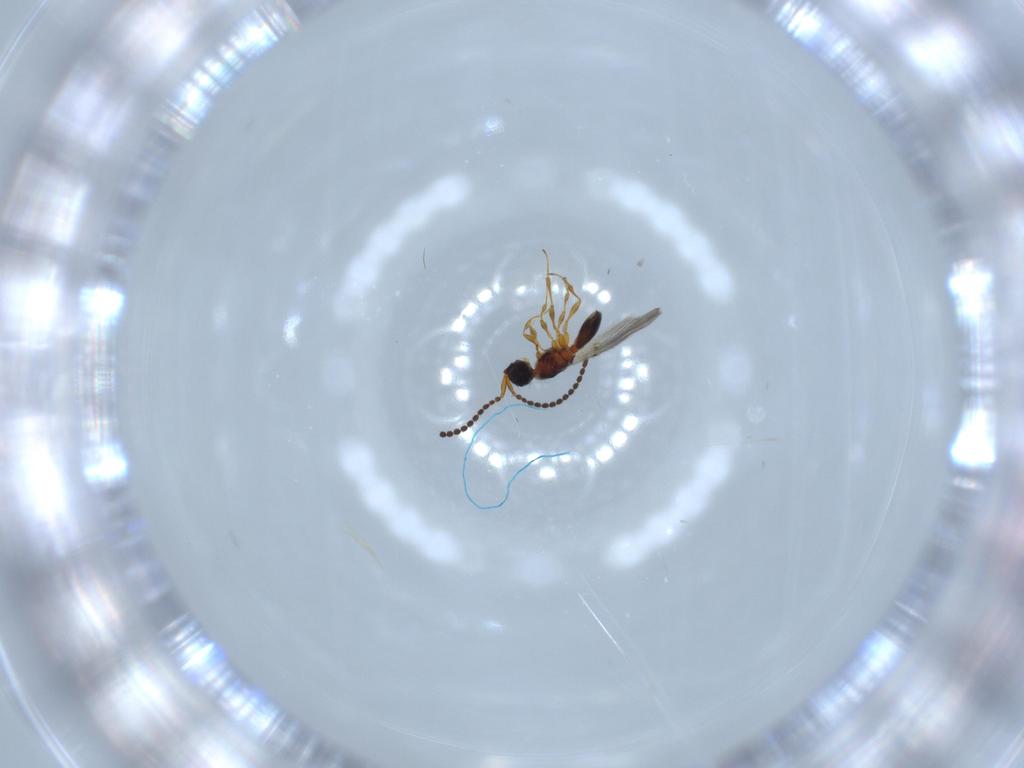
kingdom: Animalia
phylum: Arthropoda
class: Insecta
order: Hymenoptera
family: Diapriidae
